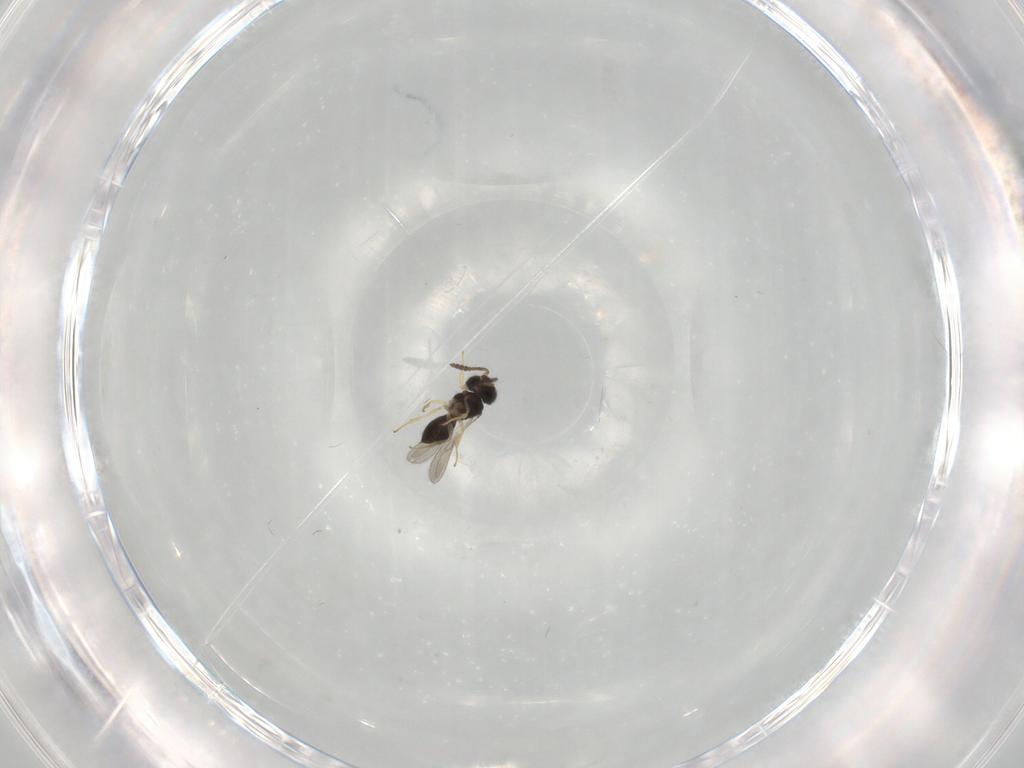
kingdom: Animalia
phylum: Arthropoda
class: Insecta
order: Hymenoptera
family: Scelionidae
